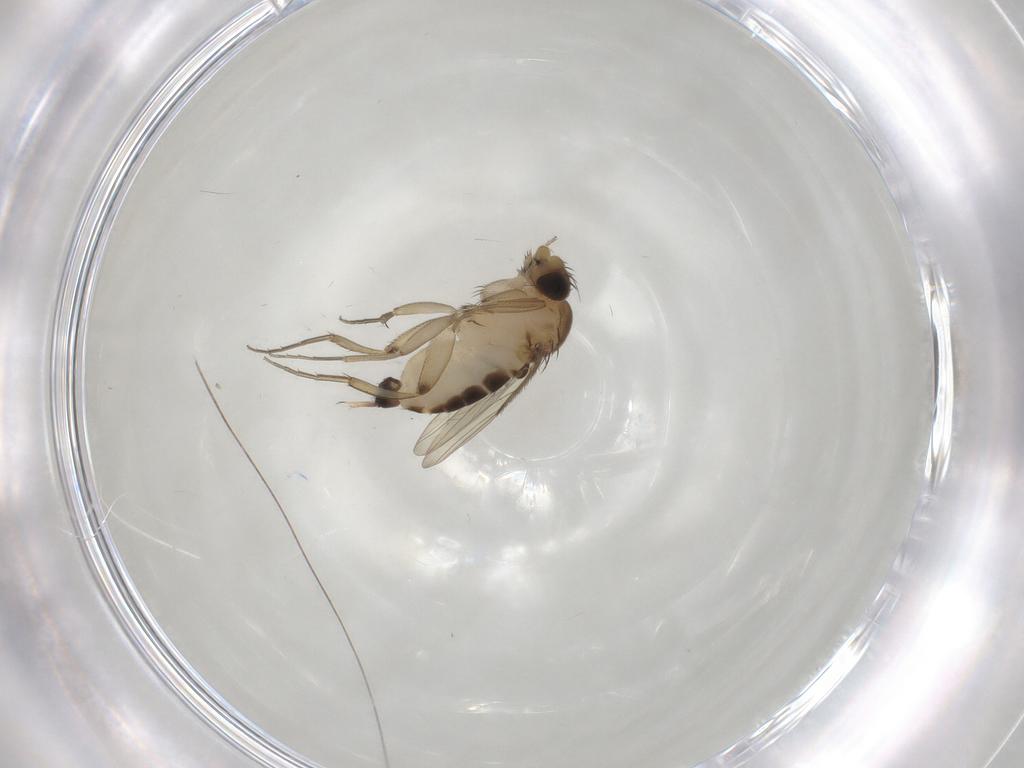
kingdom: Animalia
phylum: Arthropoda
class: Insecta
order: Diptera
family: Phoridae
